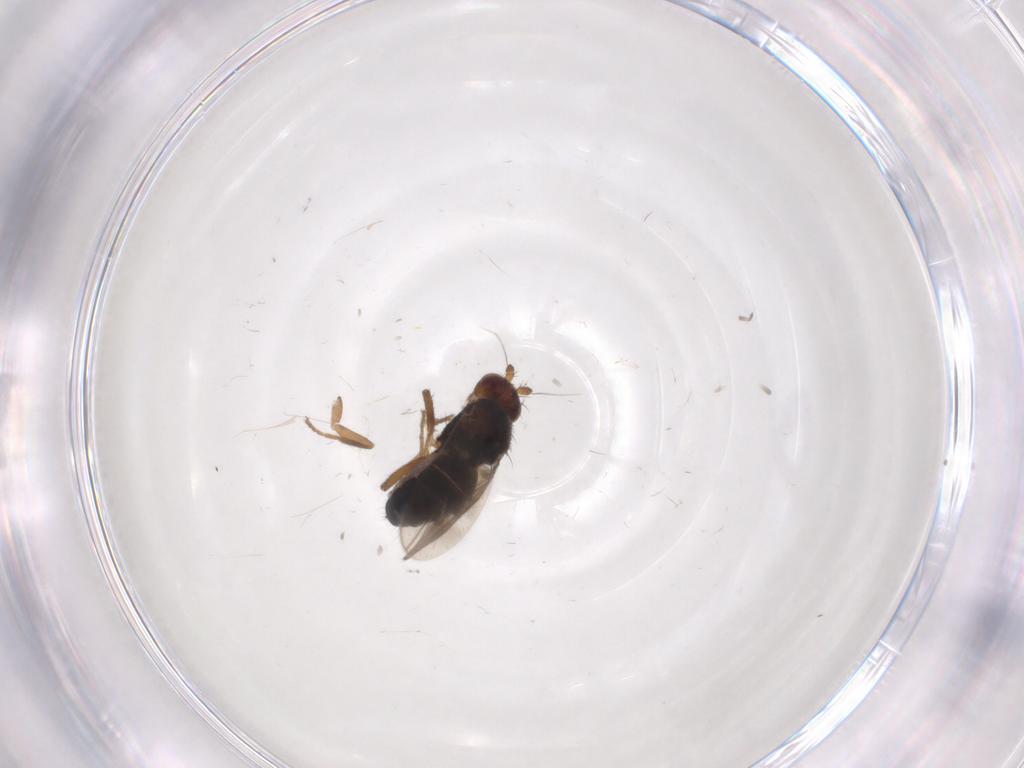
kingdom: Animalia
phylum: Arthropoda
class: Insecta
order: Diptera
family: Sphaeroceridae
